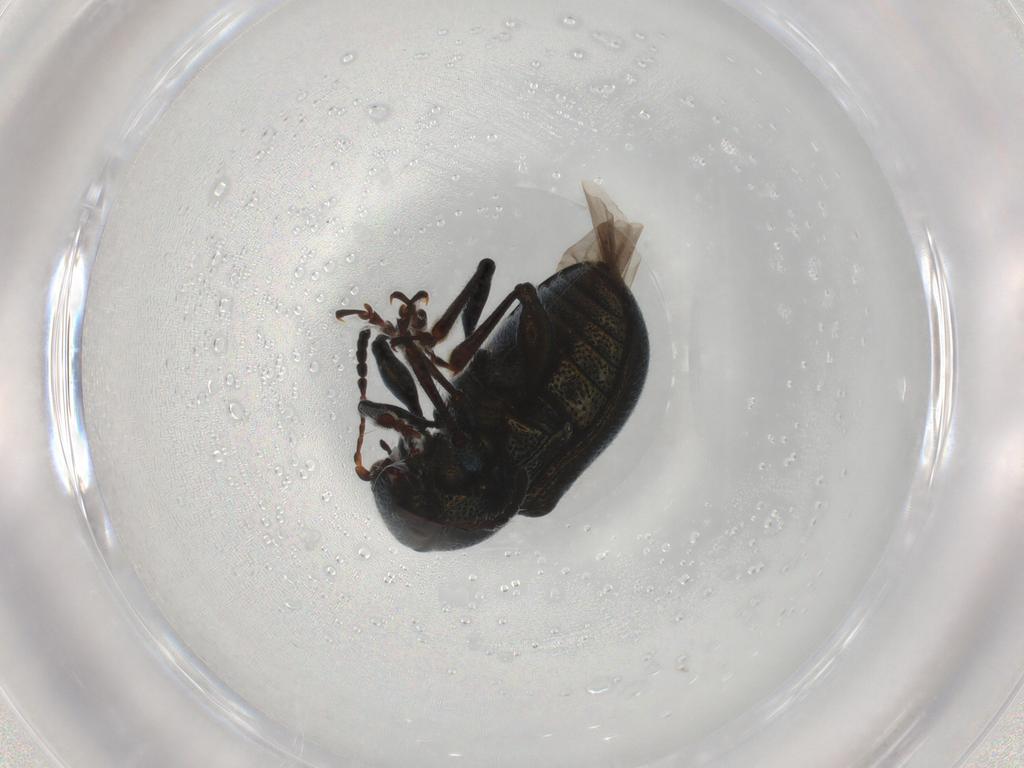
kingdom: Animalia
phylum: Arthropoda
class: Insecta
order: Coleoptera
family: Chrysomelidae
